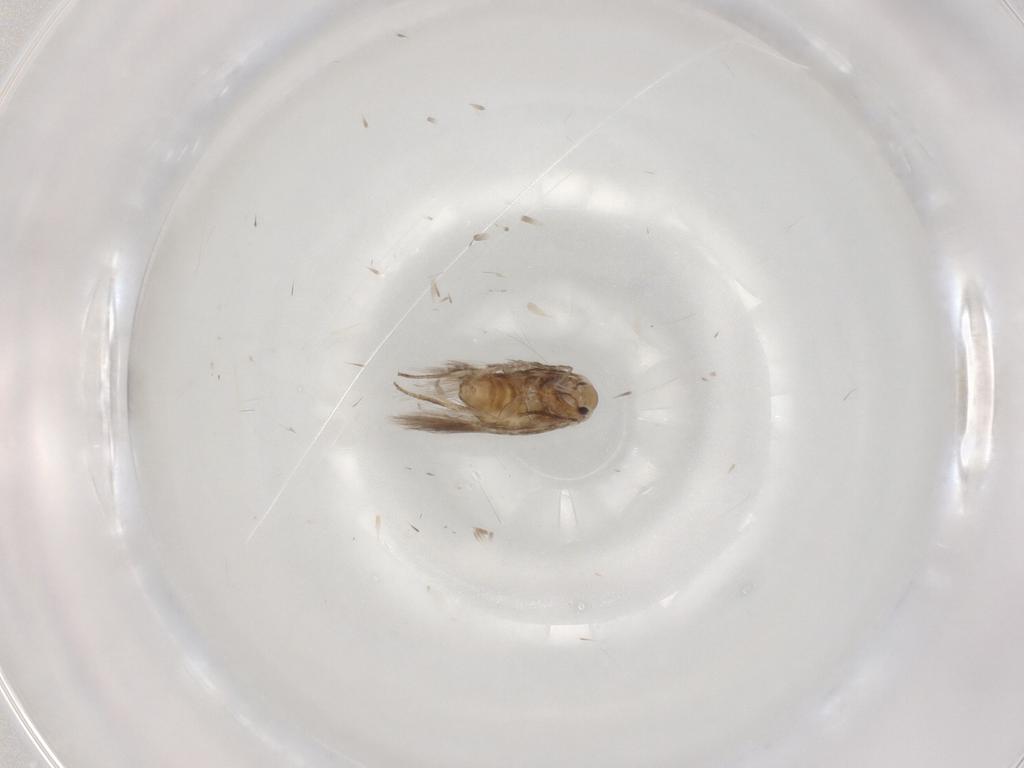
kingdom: Animalia
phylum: Arthropoda
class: Insecta
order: Lepidoptera
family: Nymphalidae
